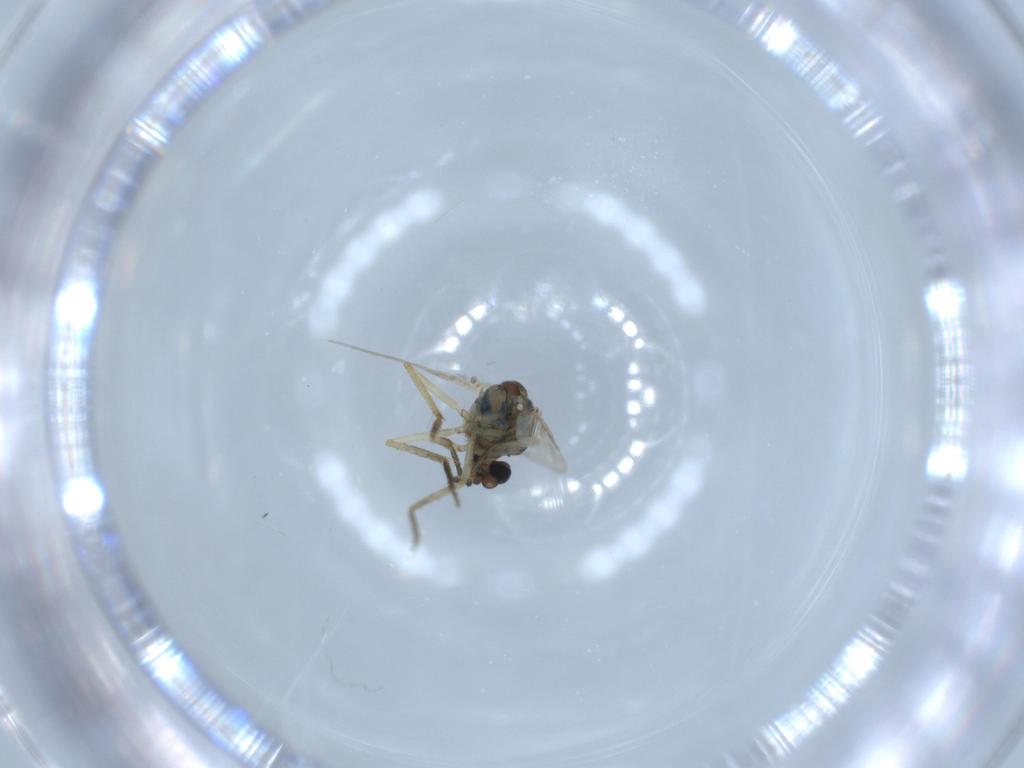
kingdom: Animalia
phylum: Arthropoda
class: Insecta
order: Diptera
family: Ceratopogonidae
